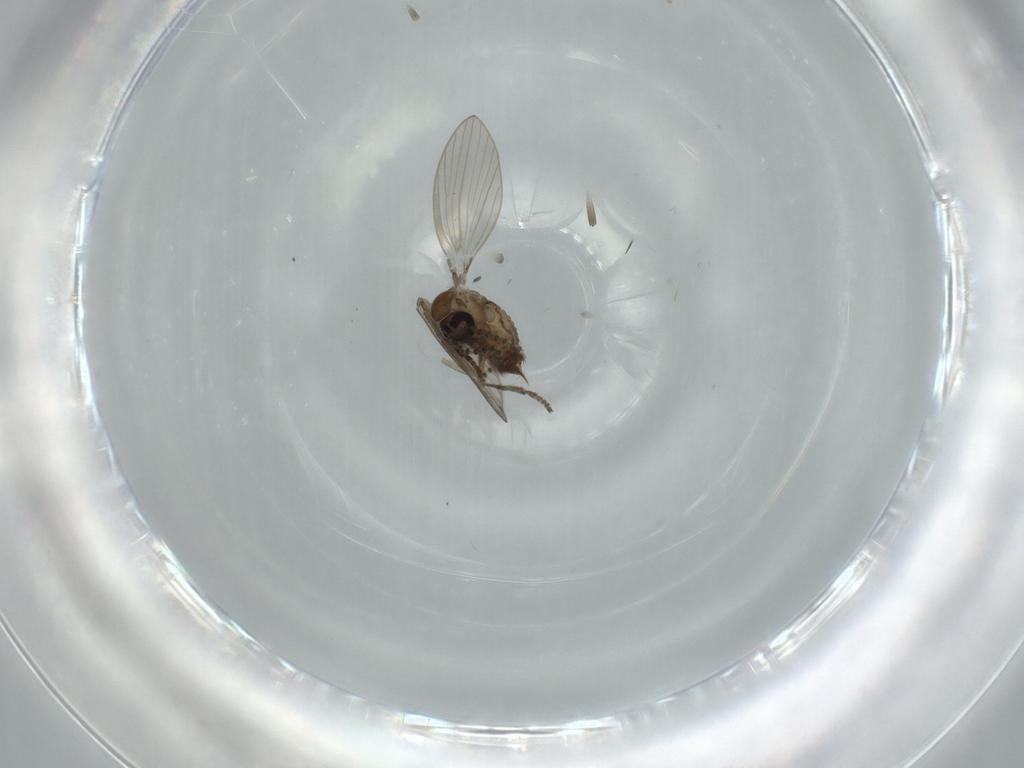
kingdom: Animalia
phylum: Arthropoda
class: Insecta
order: Diptera
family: Psychodidae
